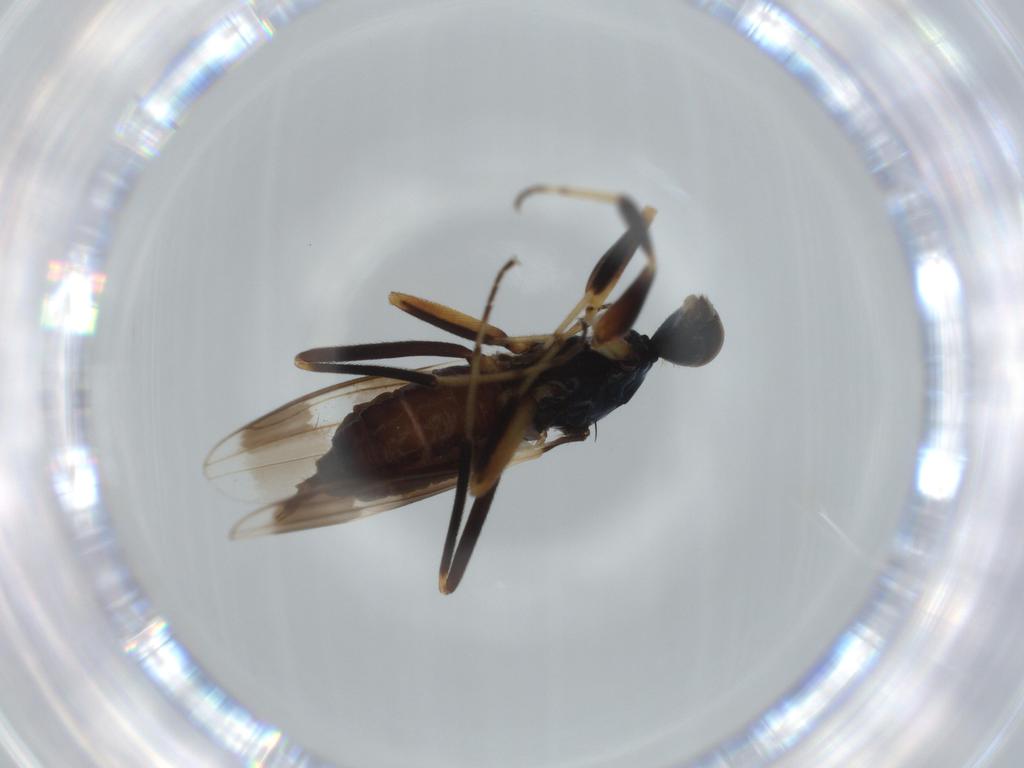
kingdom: Animalia
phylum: Arthropoda
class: Insecta
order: Diptera
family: Hybotidae
